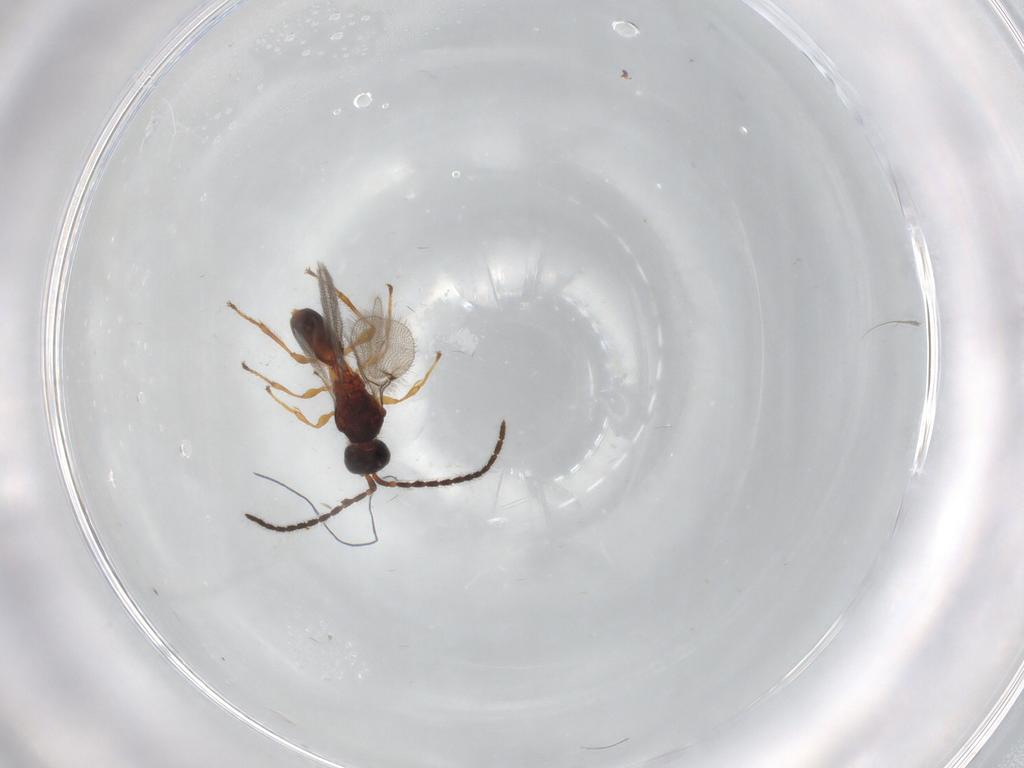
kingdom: Animalia
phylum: Arthropoda
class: Insecta
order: Hymenoptera
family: Diapriidae
